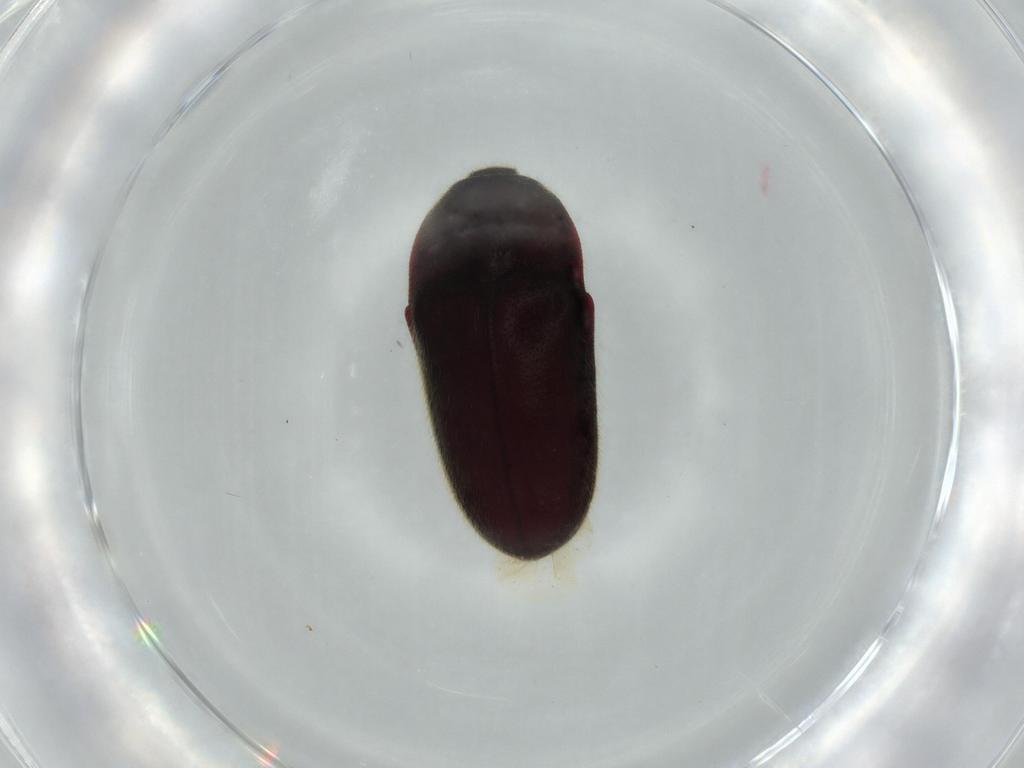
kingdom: Animalia
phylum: Arthropoda
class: Insecta
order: Coleoptera
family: Throscidae
